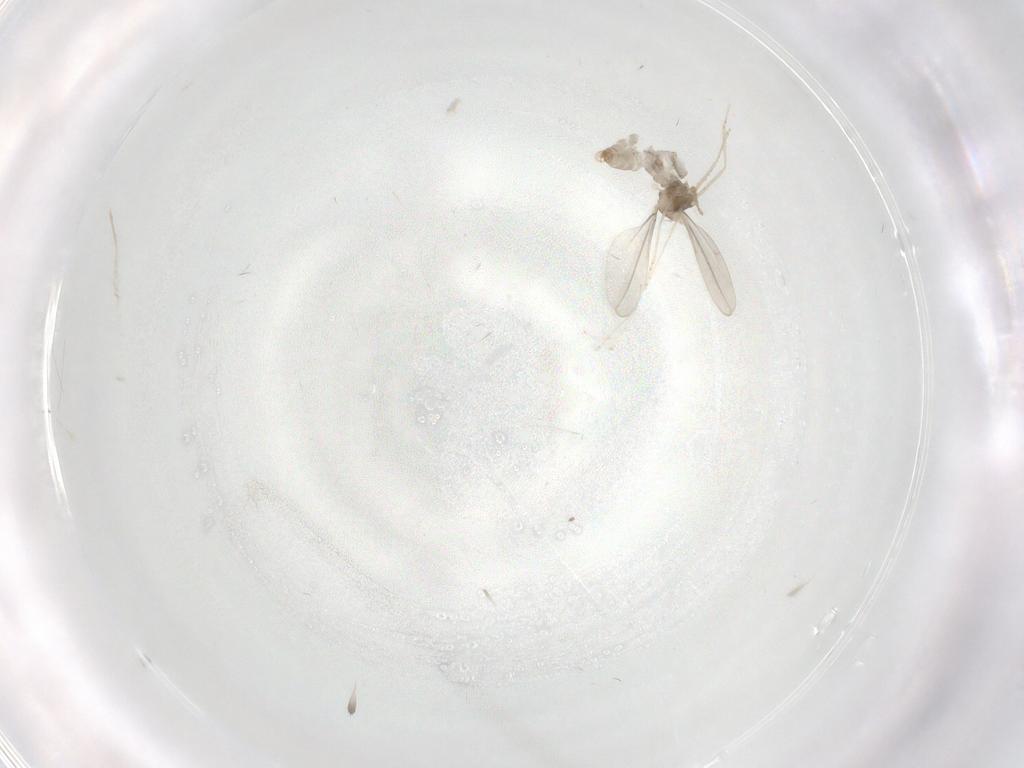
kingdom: Animalia
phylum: Arthropoda
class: Insecta
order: Diptera
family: Cecidomyiidae
